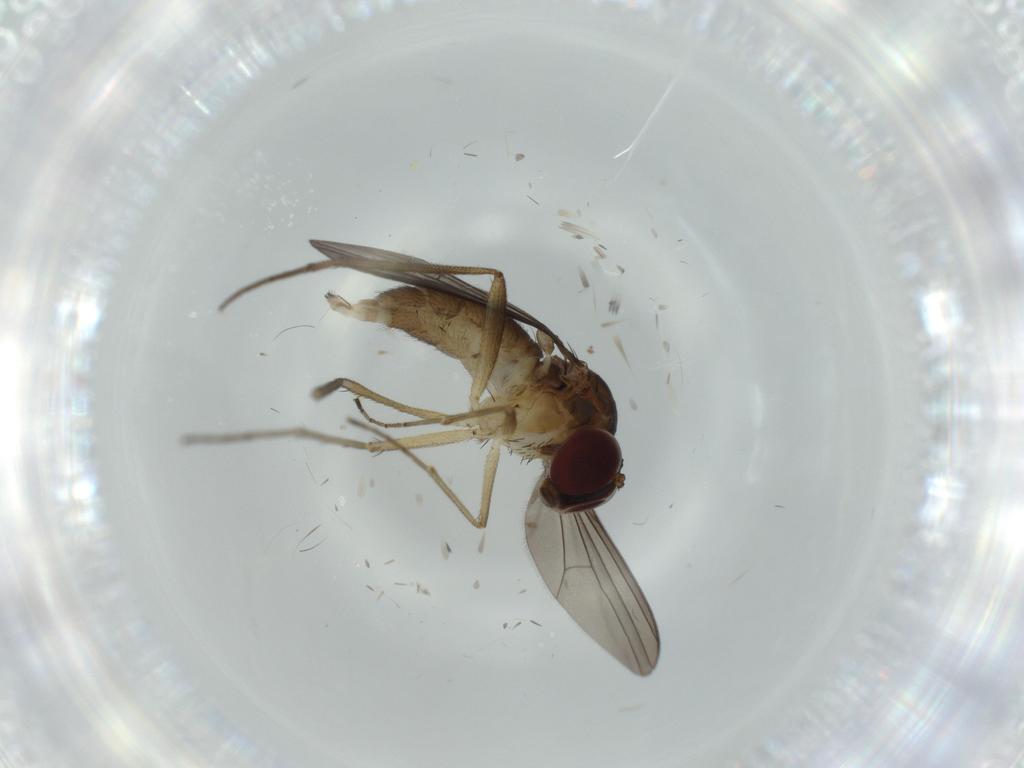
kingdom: Animalia
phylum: Arthropoda
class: Insecta
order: Diptera
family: Dolichopodidae
